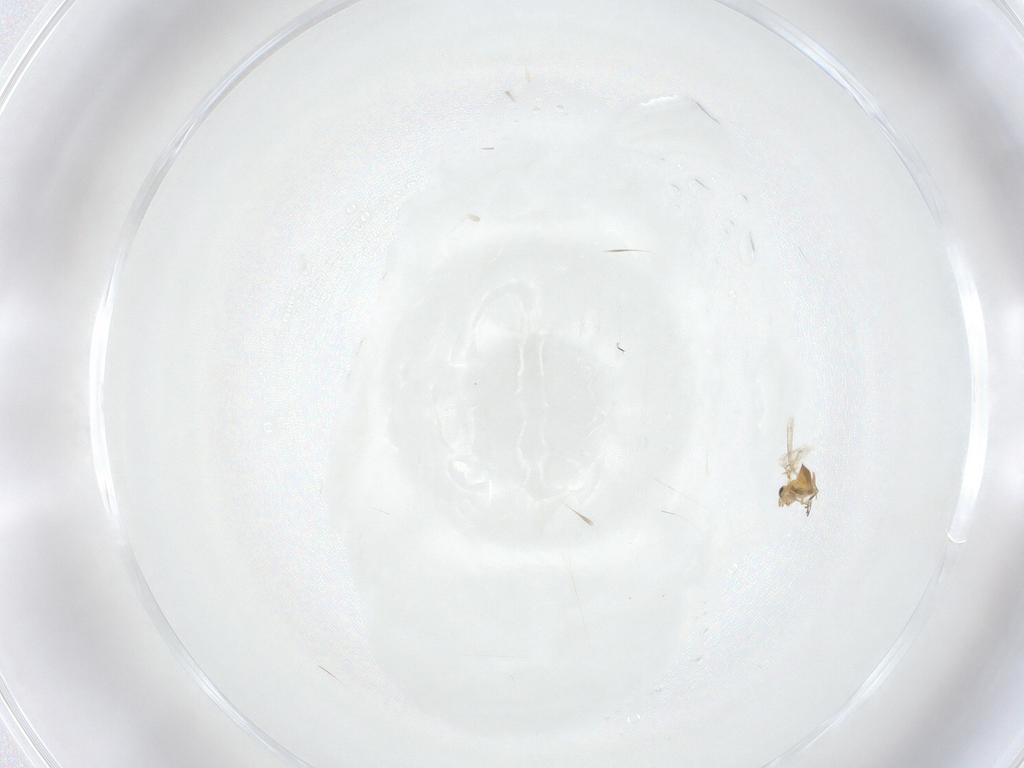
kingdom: Animalia
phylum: Arthropoda
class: Insecta
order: Hymenoptera
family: Trichogrammatidae
